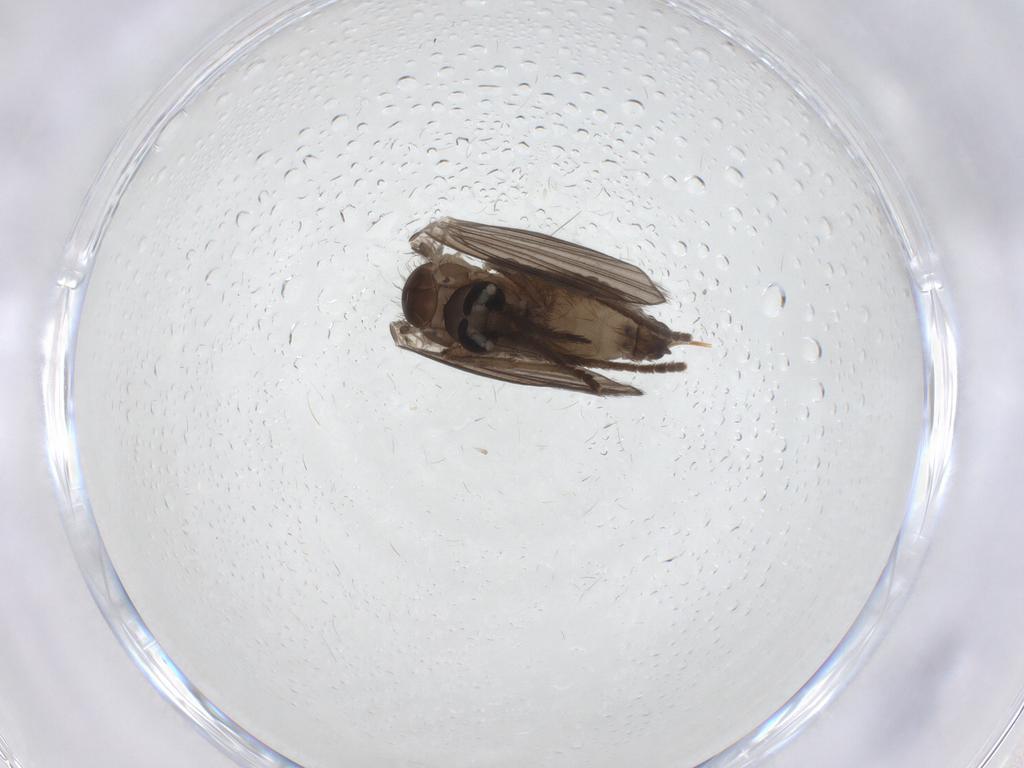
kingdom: Animalia
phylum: Arthropoda
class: Insecta
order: Diptera
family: Psychodidae
